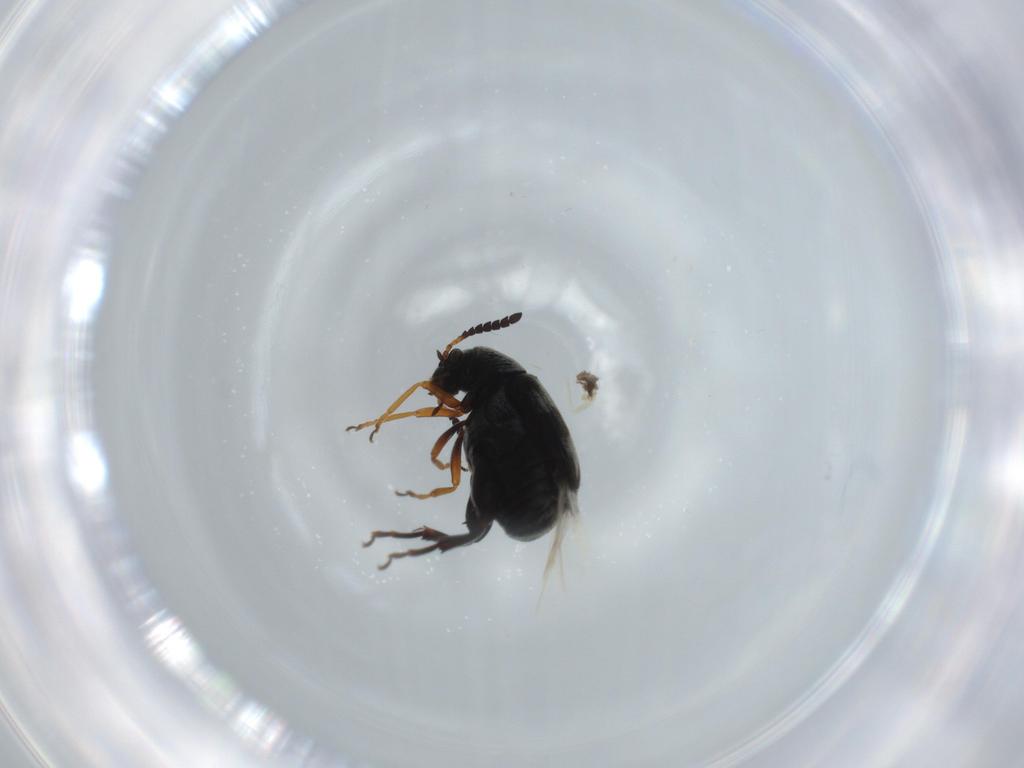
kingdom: Animalia
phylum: Arthropoda
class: Insecta
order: Coleoptera
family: Chrysomelidae
